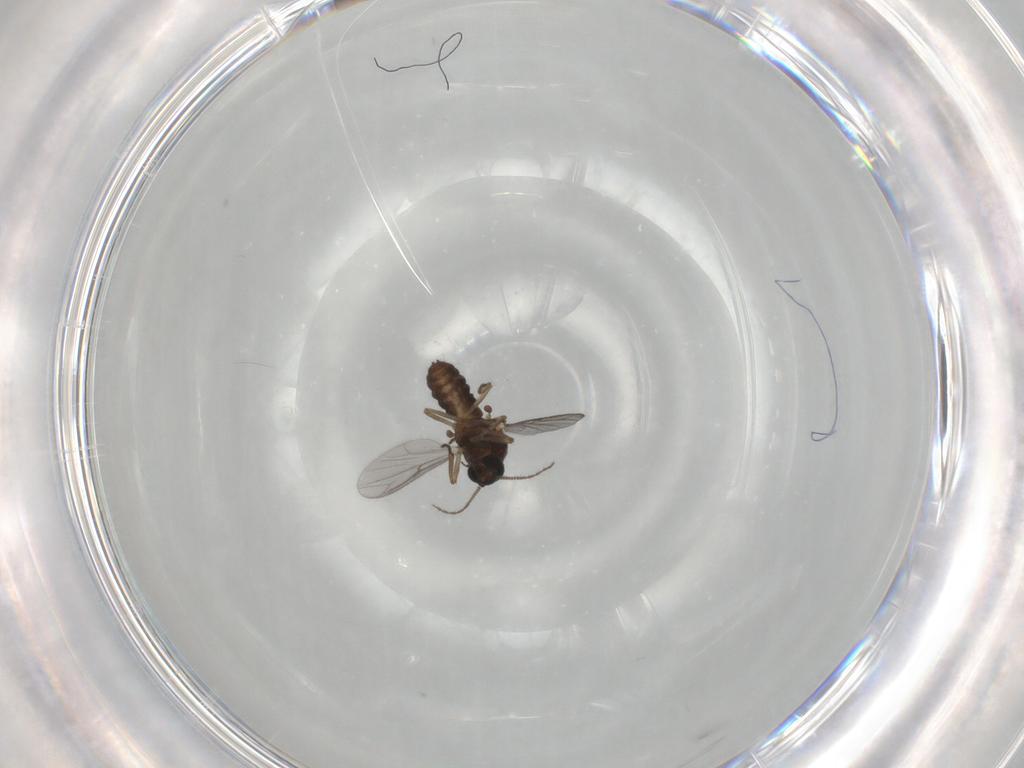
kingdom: Animalia
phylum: Arthropoda
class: Insecta
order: Diptera
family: Ceratopogonidae
